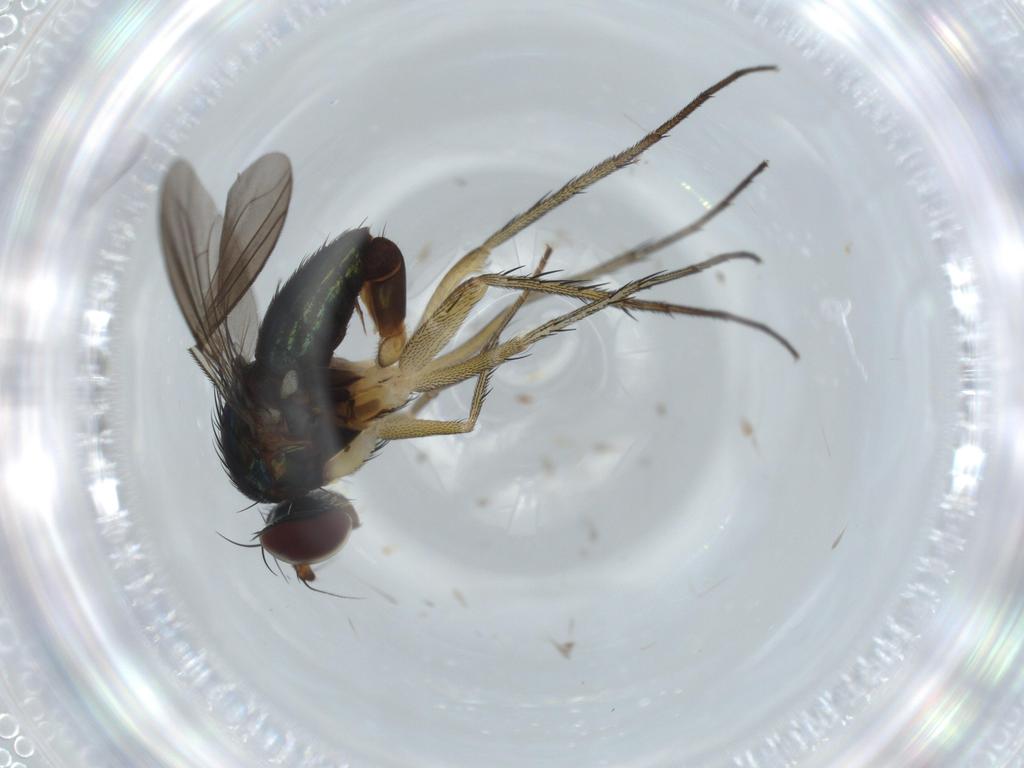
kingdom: Animalia
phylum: Arthropoda
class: Insecta
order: Diptera
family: Dolichopodidae
